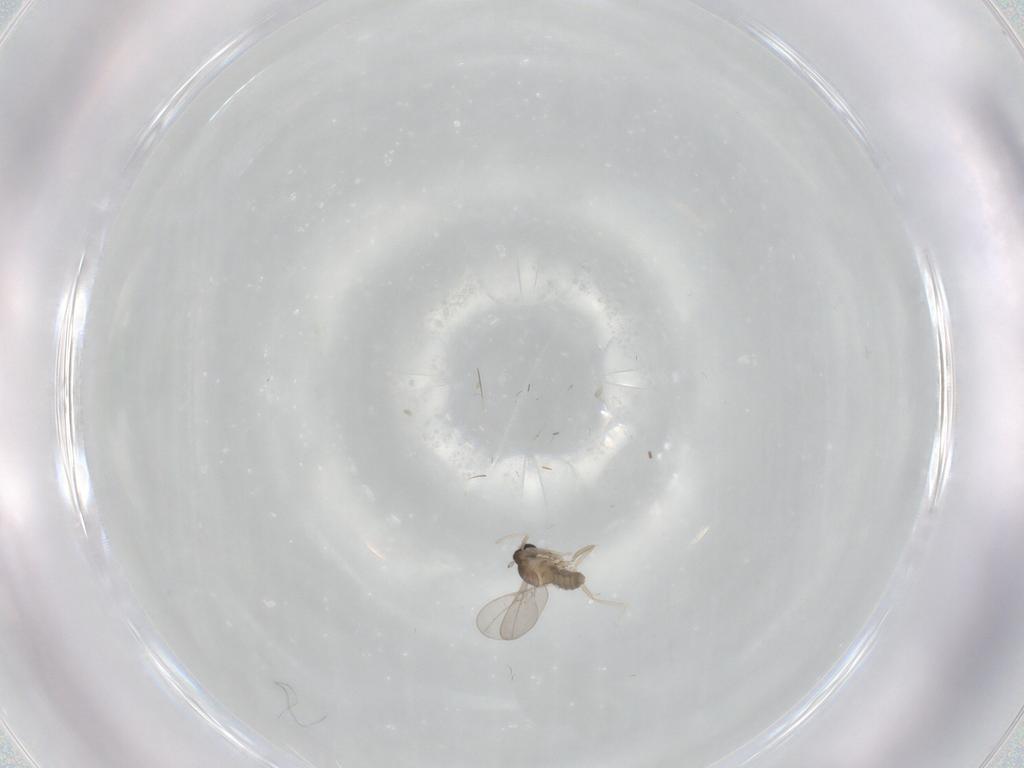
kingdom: Animalia
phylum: Arthropoda
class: Insecta
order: Diptera
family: Cecidomyiidae
